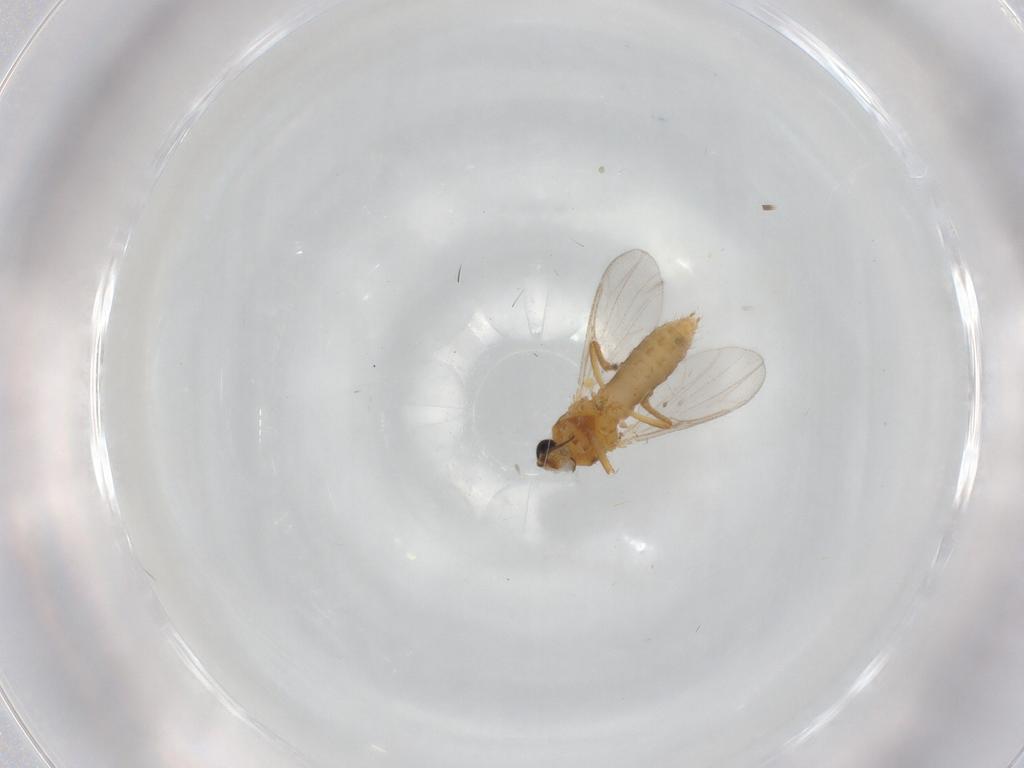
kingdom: Animalia
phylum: Arthropoda
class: Insecta
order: Diptera
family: Ceratopogonidae
